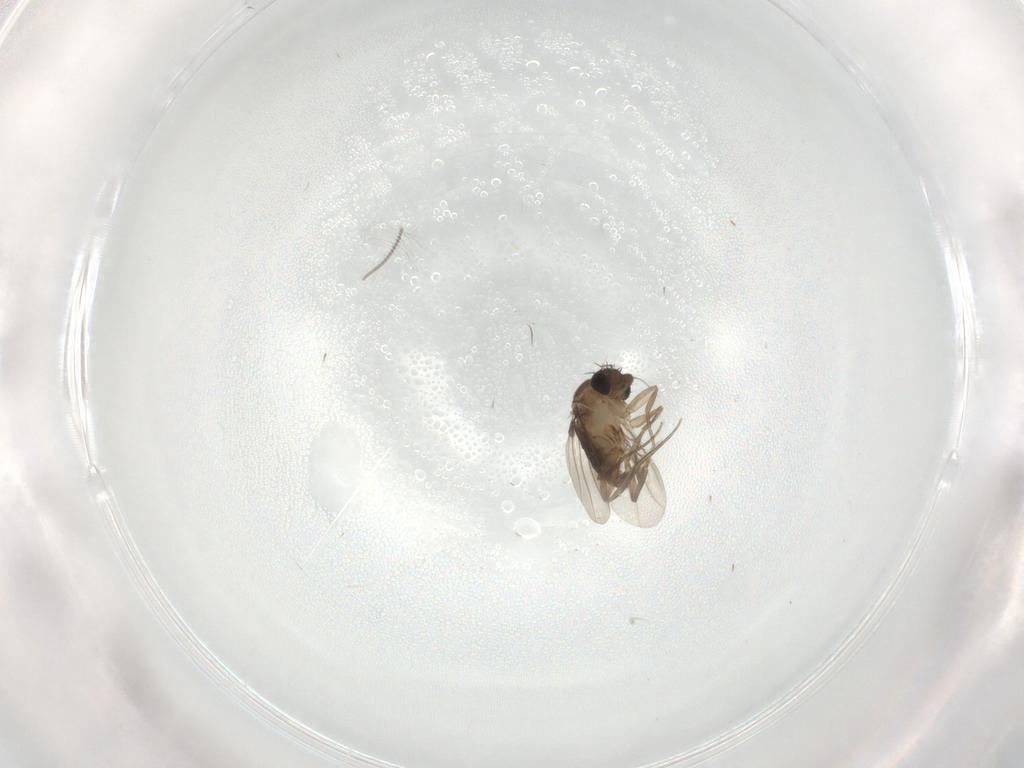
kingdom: Animalia
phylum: Arthropoda
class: Insecta
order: Diptera
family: Phoridae
